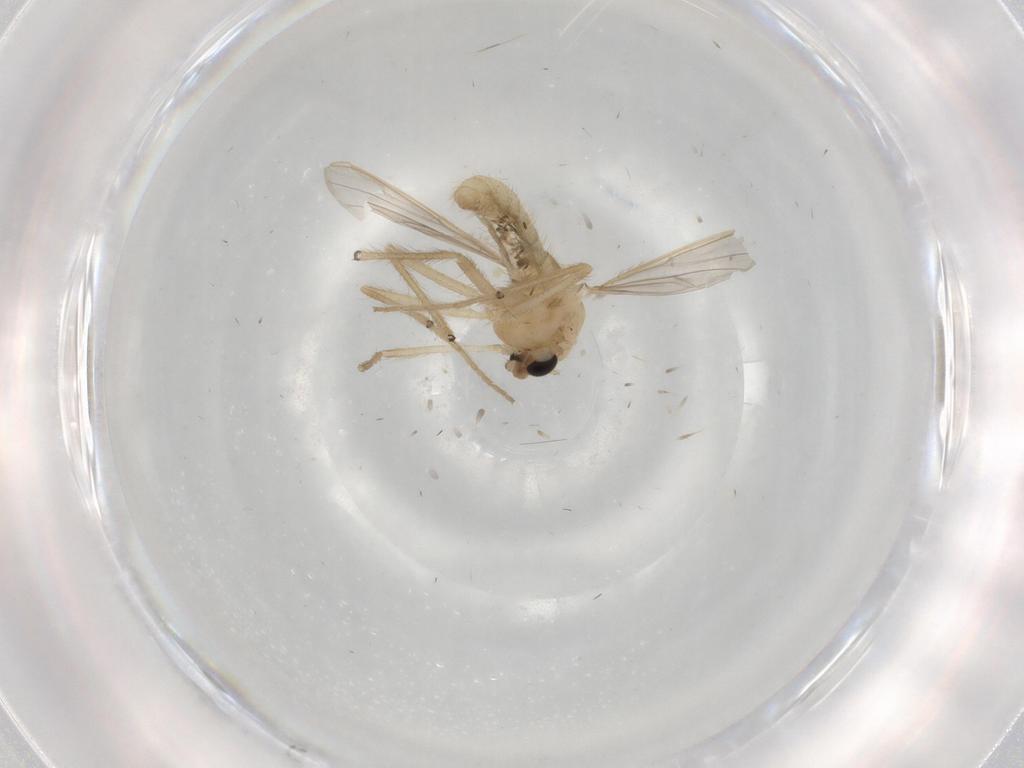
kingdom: Animalia
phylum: Arthropoda
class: Insecta
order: Diptera
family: Chironomidae
